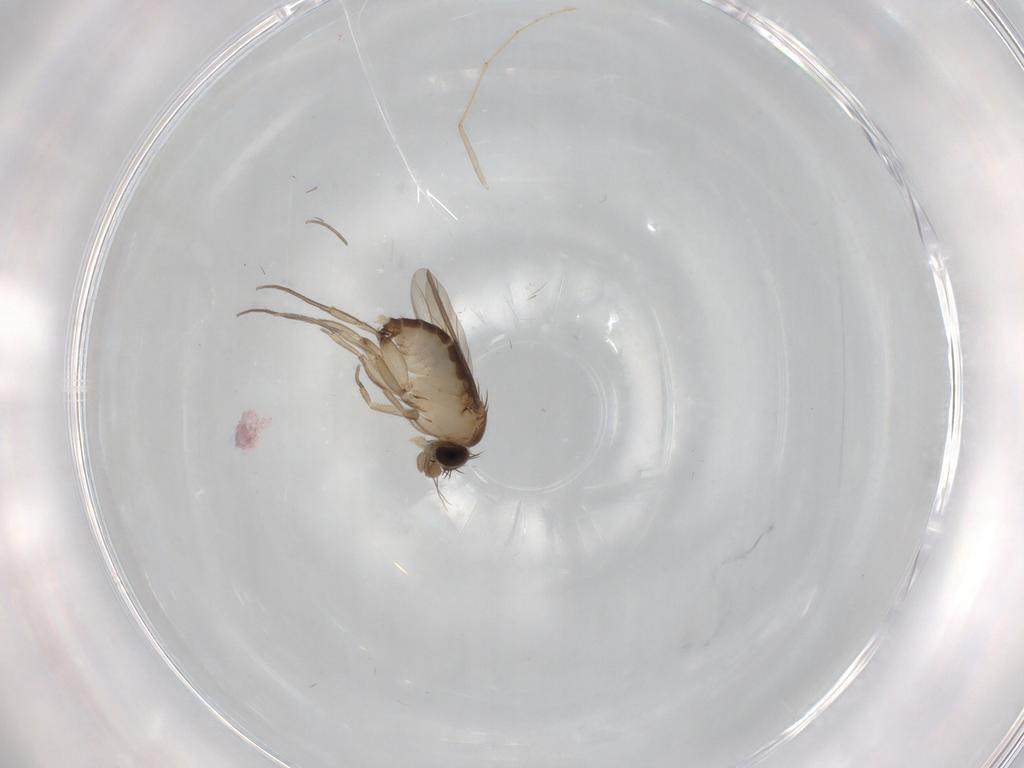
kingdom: Animalia
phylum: Arthropoda
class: Insecta
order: Diptera
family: Phoridae
